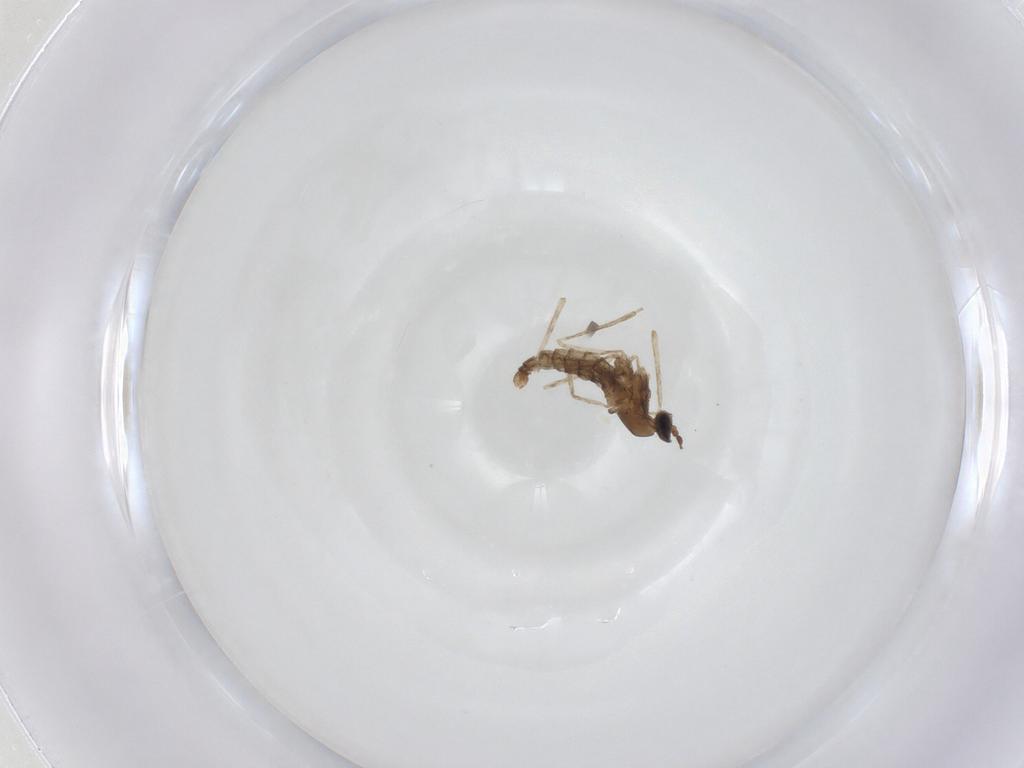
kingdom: Animalia
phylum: Arthropoda
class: Insecta
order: Diptera
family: Cecidomyiidae
